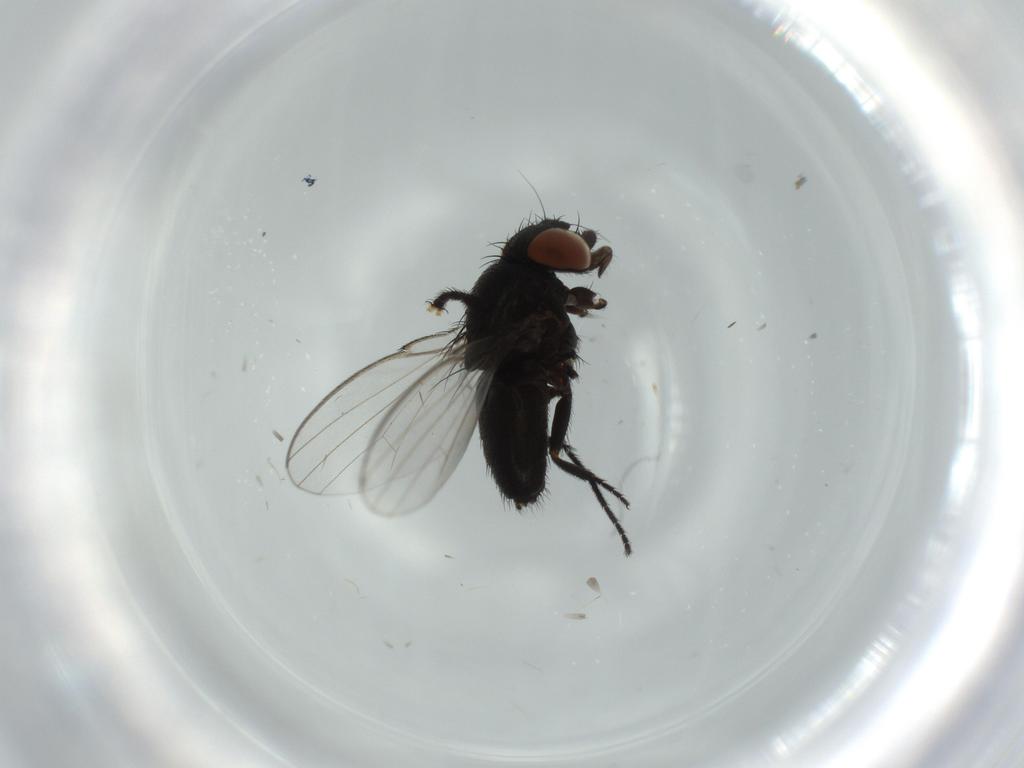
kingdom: Animalia
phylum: Arthropoda
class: Insecta
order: Diptera
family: Milichiidae
